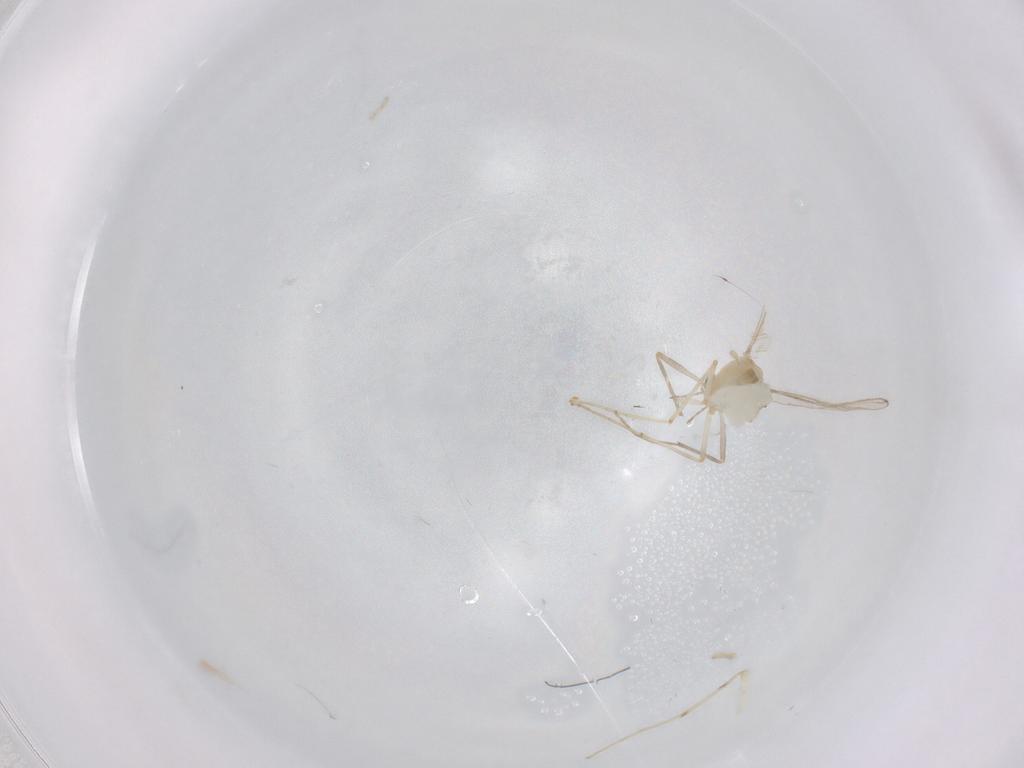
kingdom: Animalia
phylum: Arthropoda
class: Insecta
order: Diptera
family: Chironomidae
